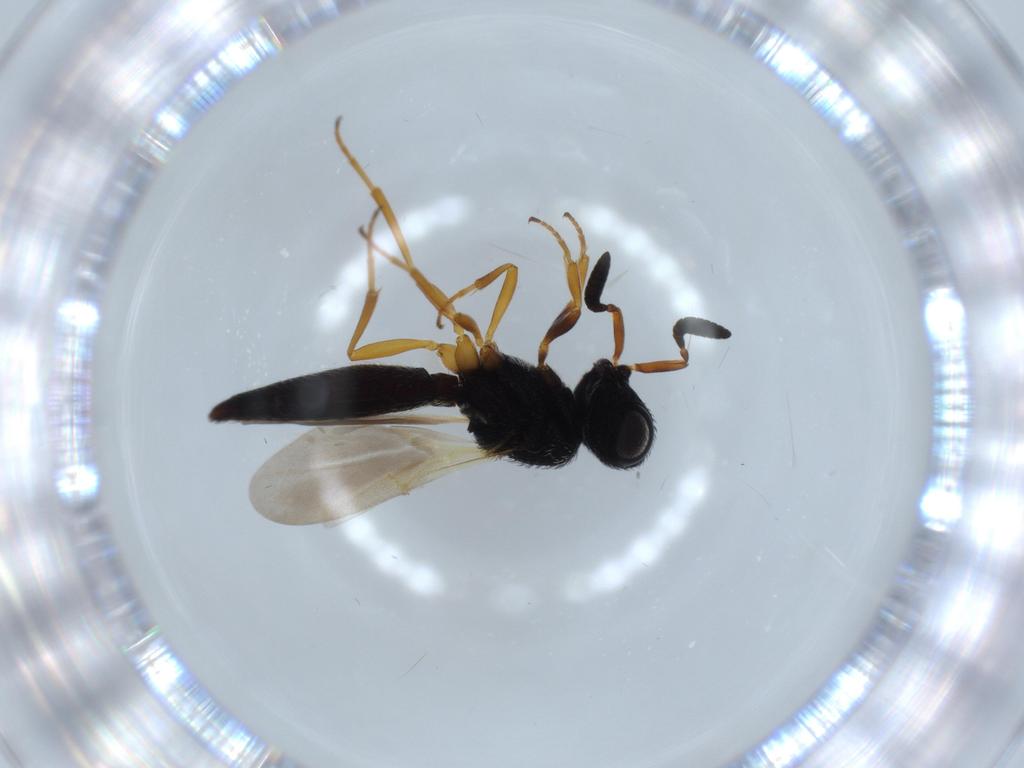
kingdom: Animalia
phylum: Arthropoda
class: Insecta
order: Hymenoptera
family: Scelionidae
